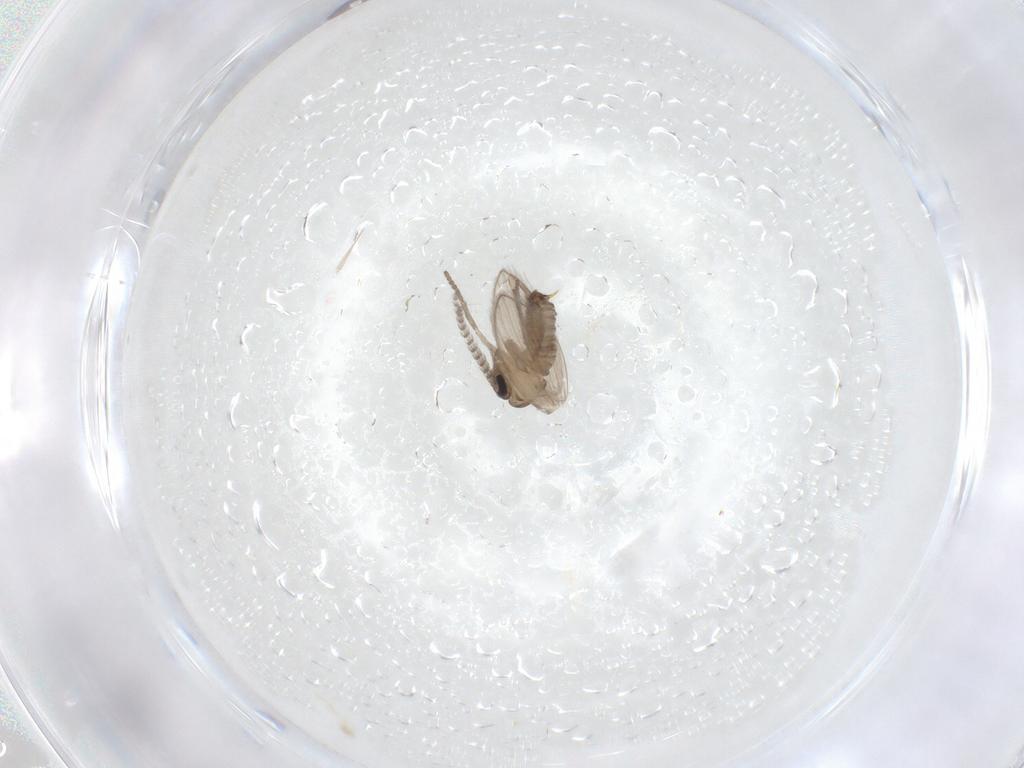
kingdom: Animalia
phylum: Arthropoda
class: Insecta
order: Diptera
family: Psychodidae
